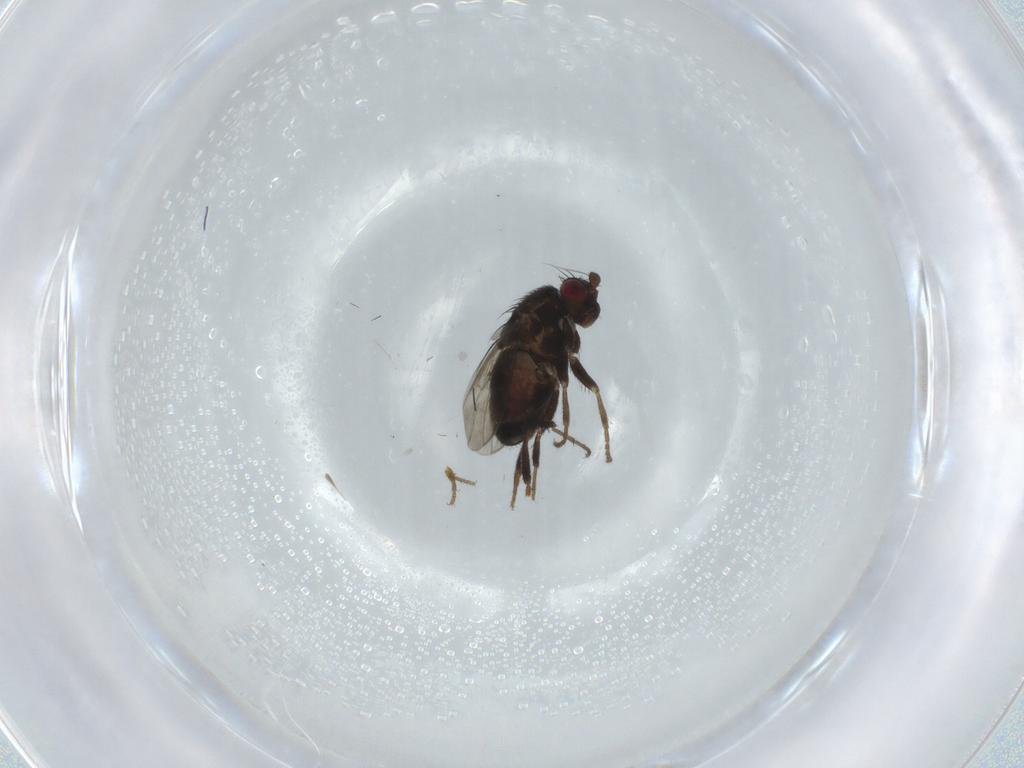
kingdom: Animalia
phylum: Arthropoda
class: Insecta
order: Diptera
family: Sphaeroceridae
